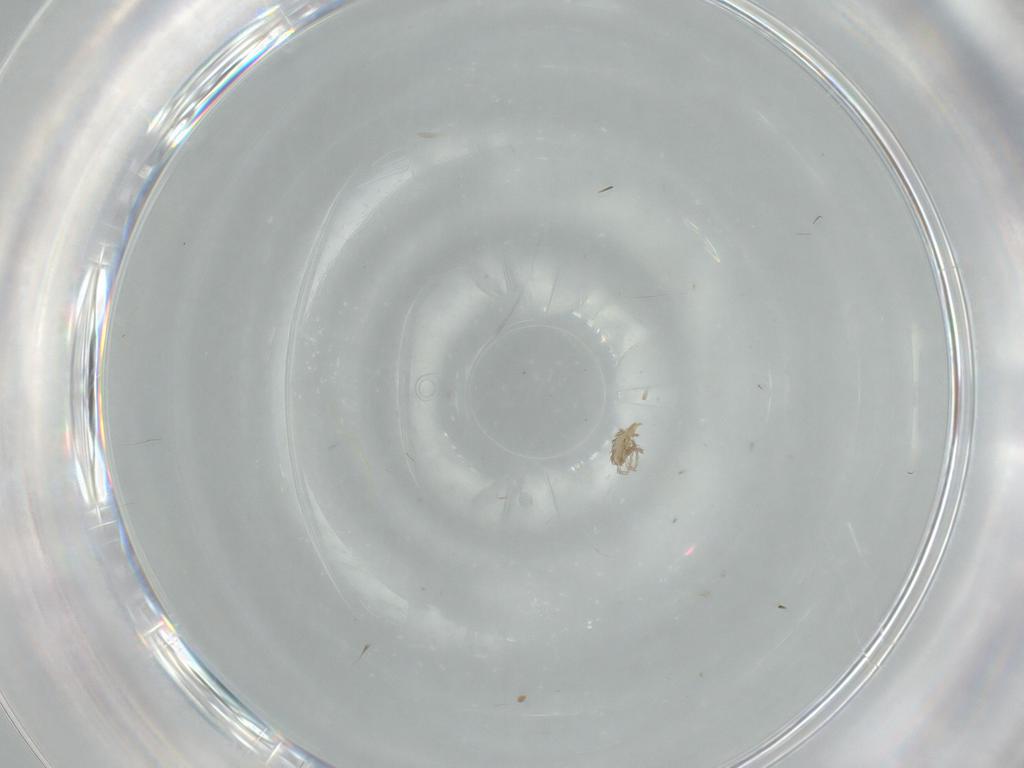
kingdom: Animalia
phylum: Arthropoda
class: Arachnida
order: Trombidiformes
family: Erythraeidae
